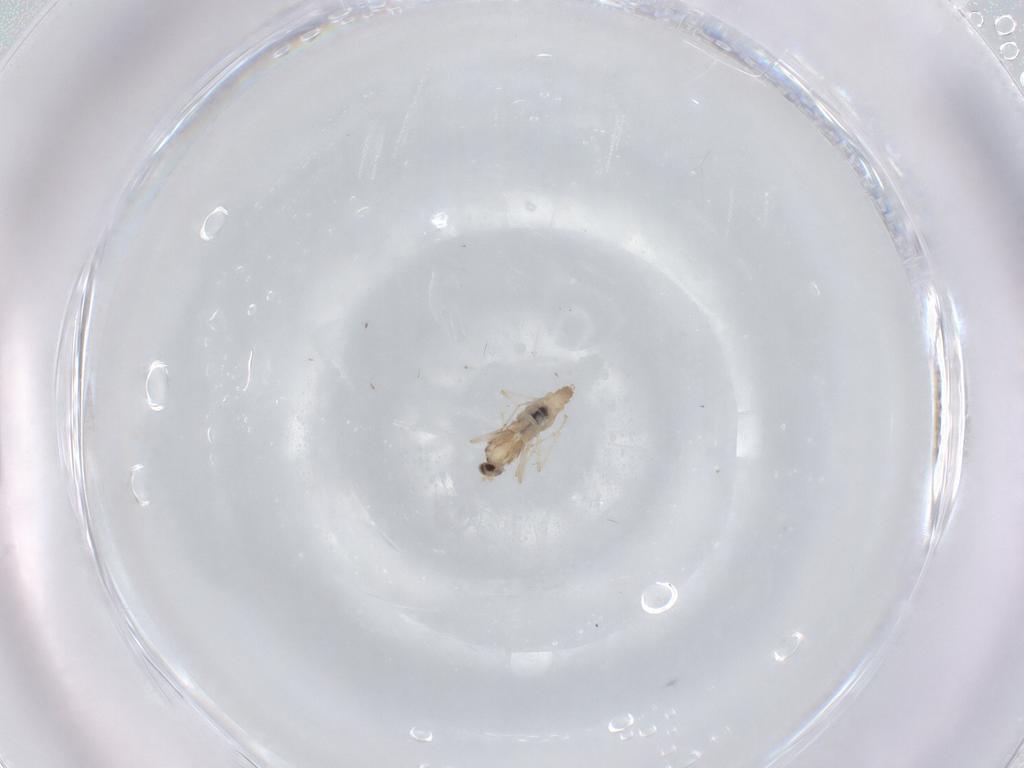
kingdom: Animalia
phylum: Arthropoda
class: Insecta
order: Diptera
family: Cecidomyiidae
